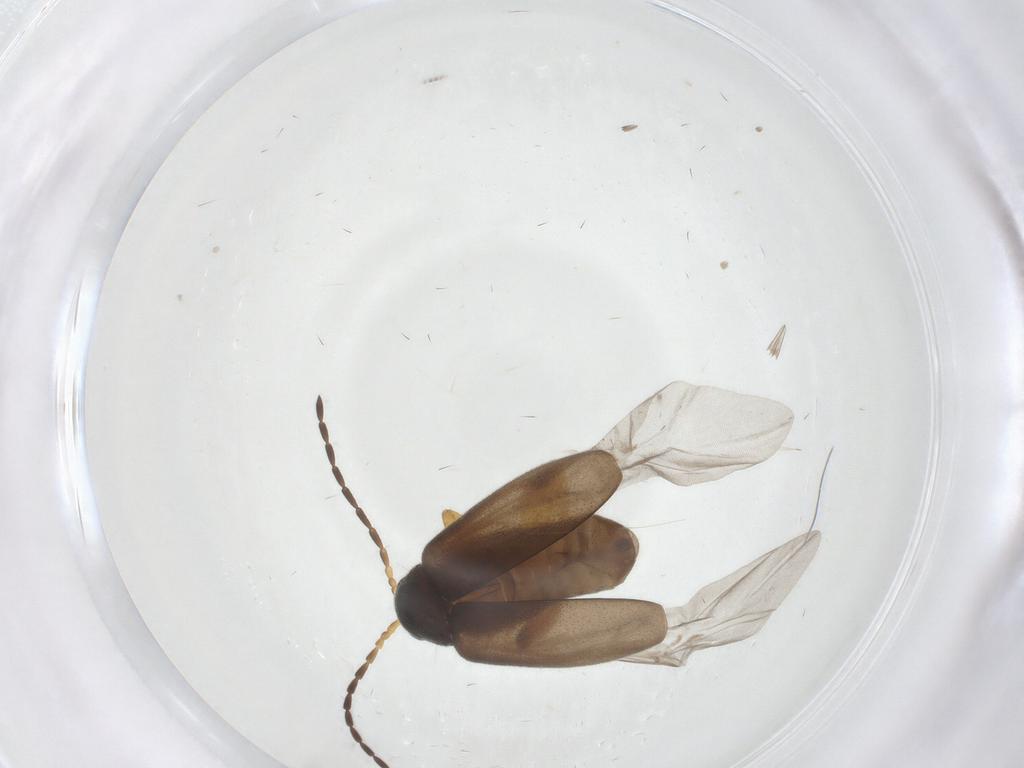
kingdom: Animalia
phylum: Arthropoda
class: Insecta
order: Coleoptera
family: Chrysomelidae
